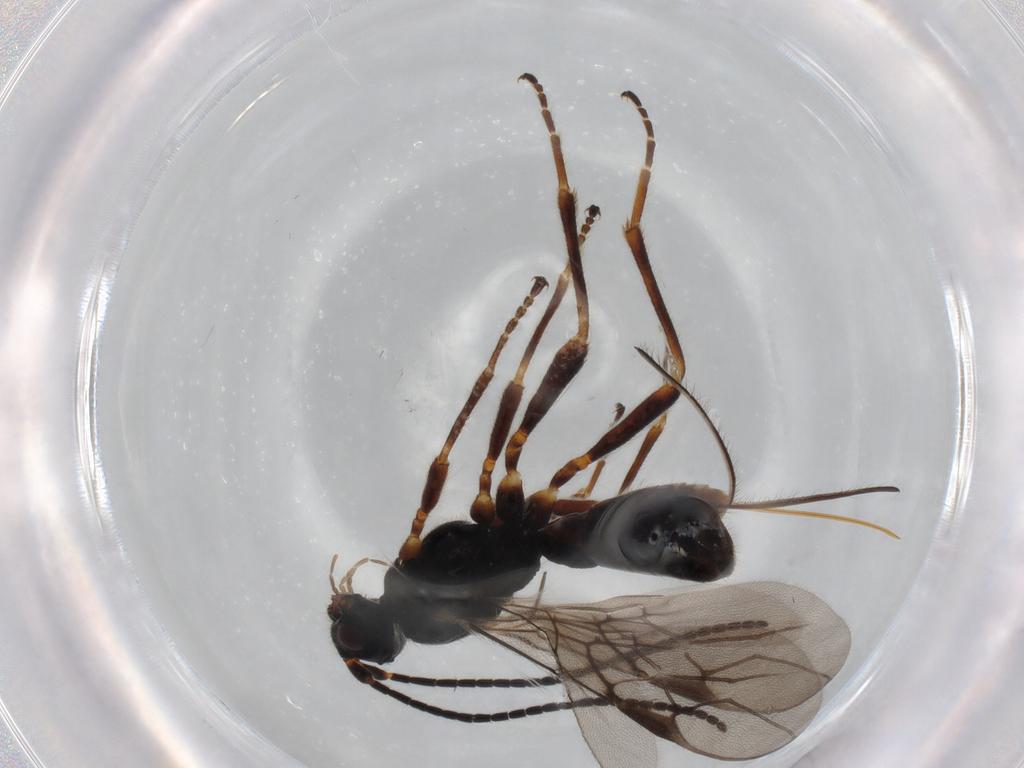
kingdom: Animalia
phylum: Arthropoda
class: Insecta
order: Hymenoptera
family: Braconidae
